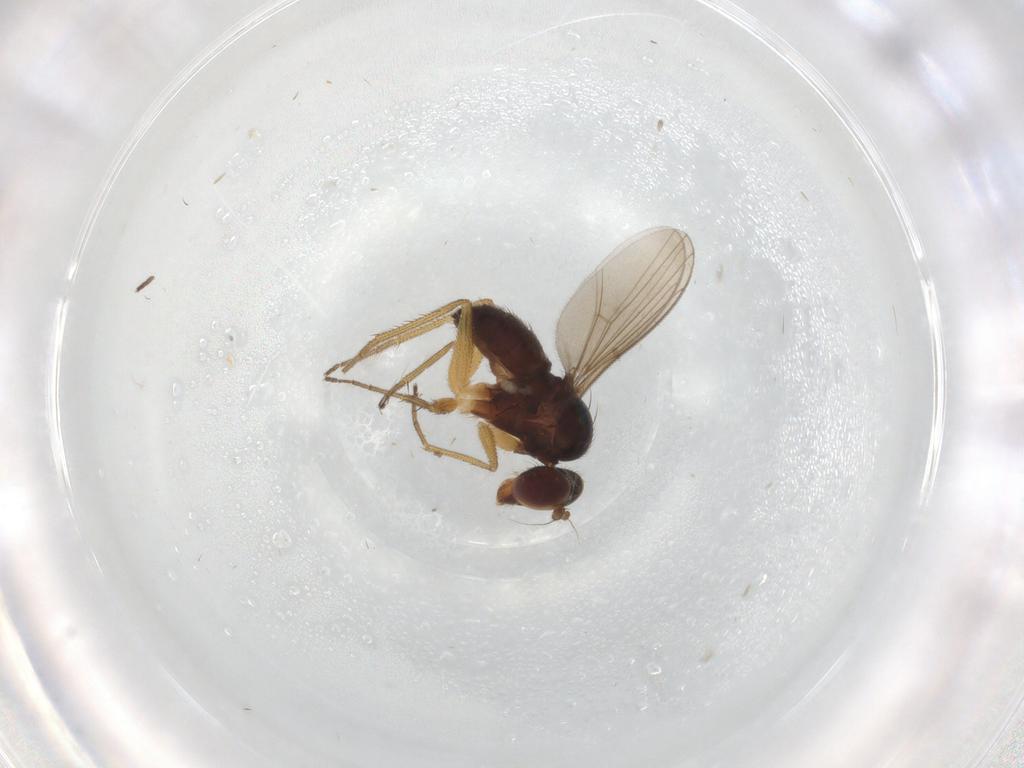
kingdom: Animalia
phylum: Arthropoda
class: Insecta
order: Diptera
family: Dolichopodidae
